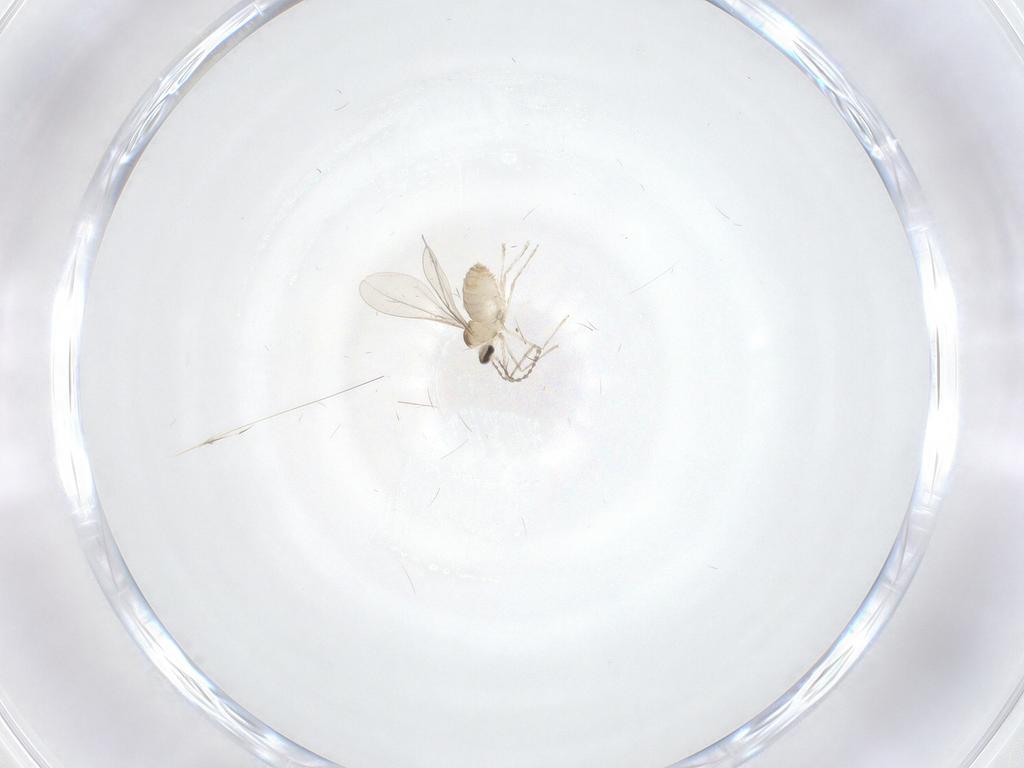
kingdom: Animalia
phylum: Arthropoda
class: Insecta
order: Diptera
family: Cecidomyiidae
